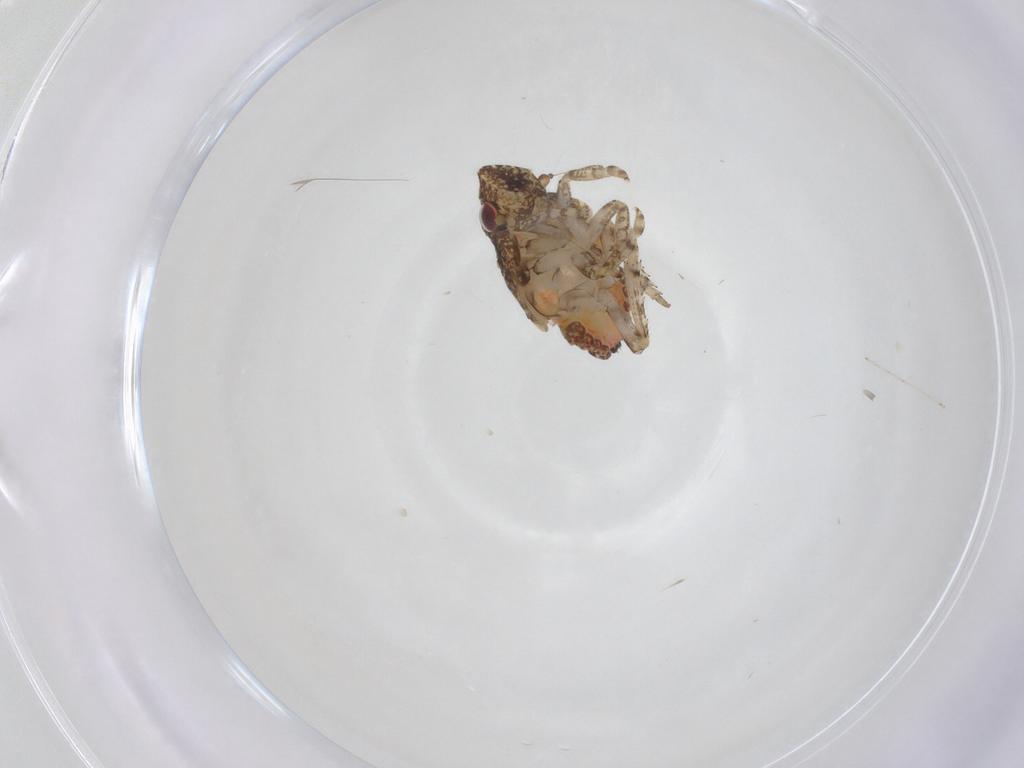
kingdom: Animalia
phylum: Arthropoda
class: Insecta
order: Hemiptera
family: Nogodinidae
